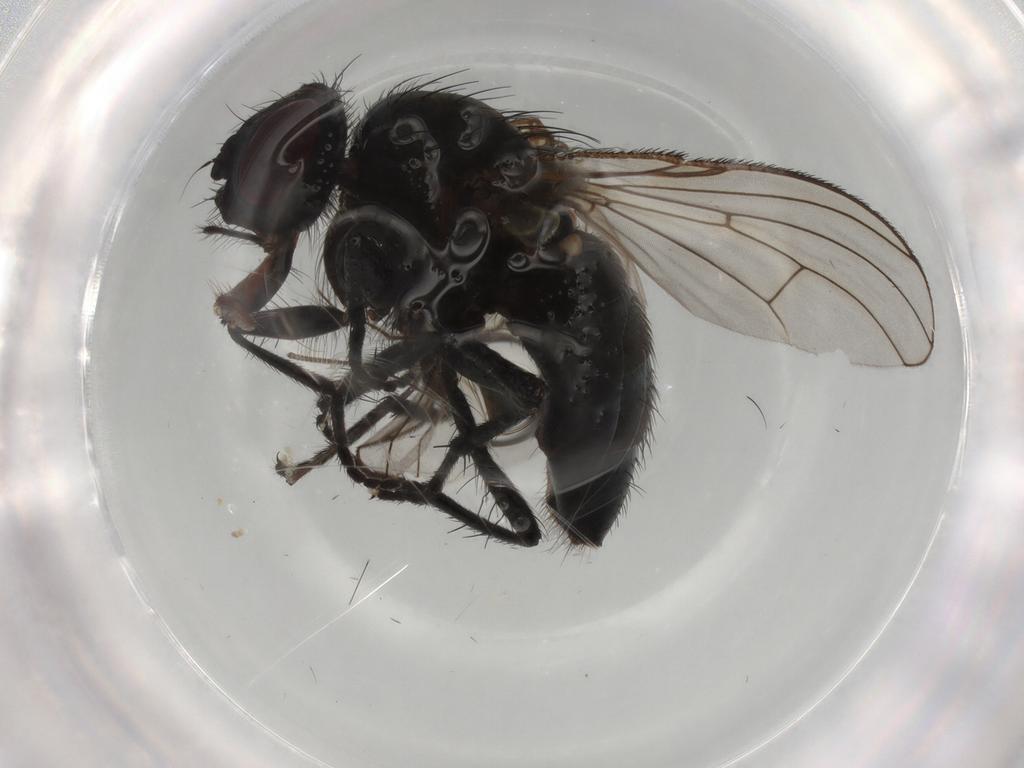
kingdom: Animalia
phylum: Arthropoda
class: Insecta
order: Diptera
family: Muscidae
